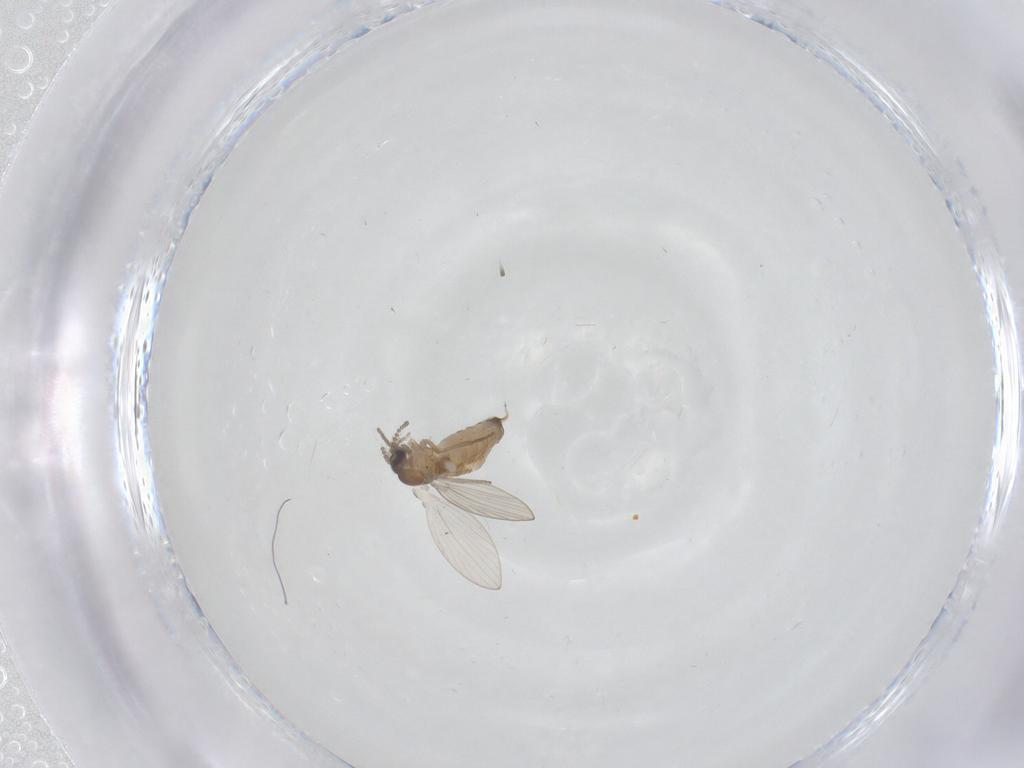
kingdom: Animalia
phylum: Arthropoda
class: Insecta
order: Diptera
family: Psychodidae
